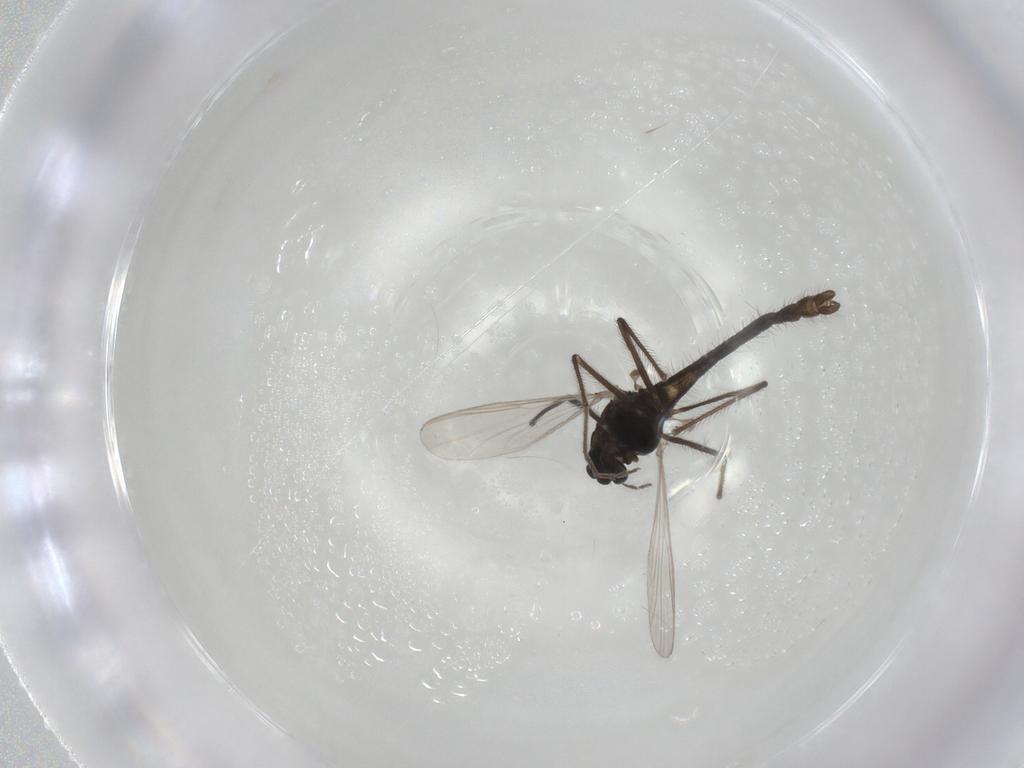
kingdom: Animalia
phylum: Arthropoda
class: Insecta
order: Diptera
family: Chironomidae
